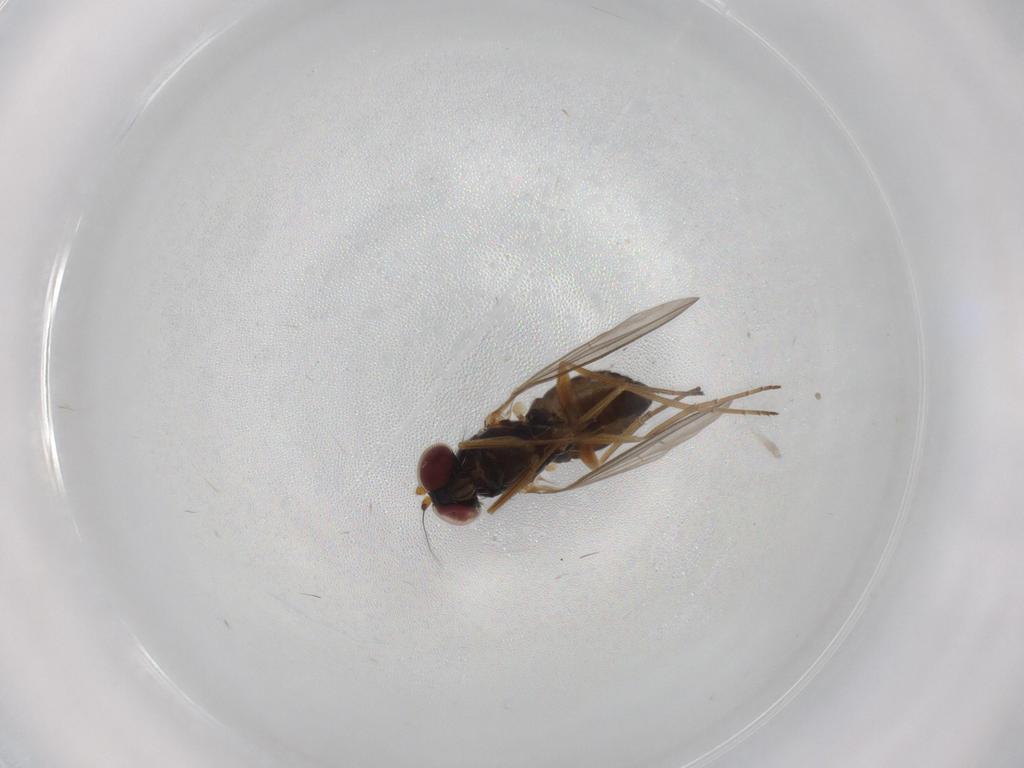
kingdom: Animalia
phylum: Arthropoda
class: Insecta
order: Diptera
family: Dolichopodidae
